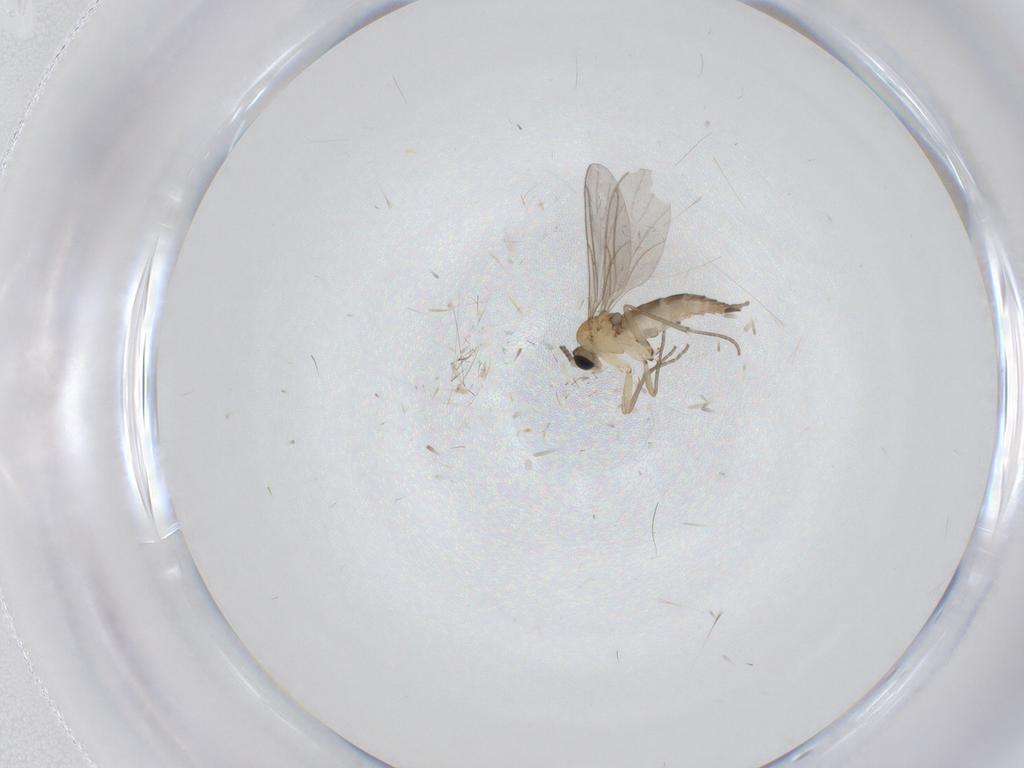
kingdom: Animalia
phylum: Arthropoda
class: Insecta
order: Diptera
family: Sciaridae
